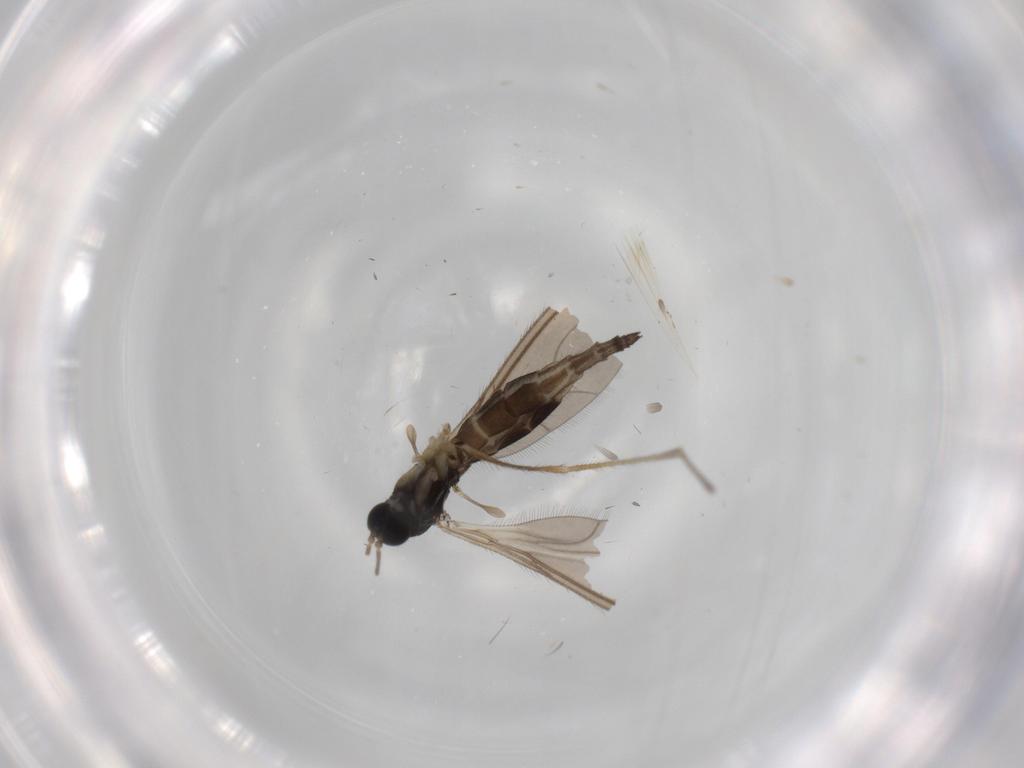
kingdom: Animalia
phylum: Arthropoda
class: Insecta
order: Diptera
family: Sciaridae
